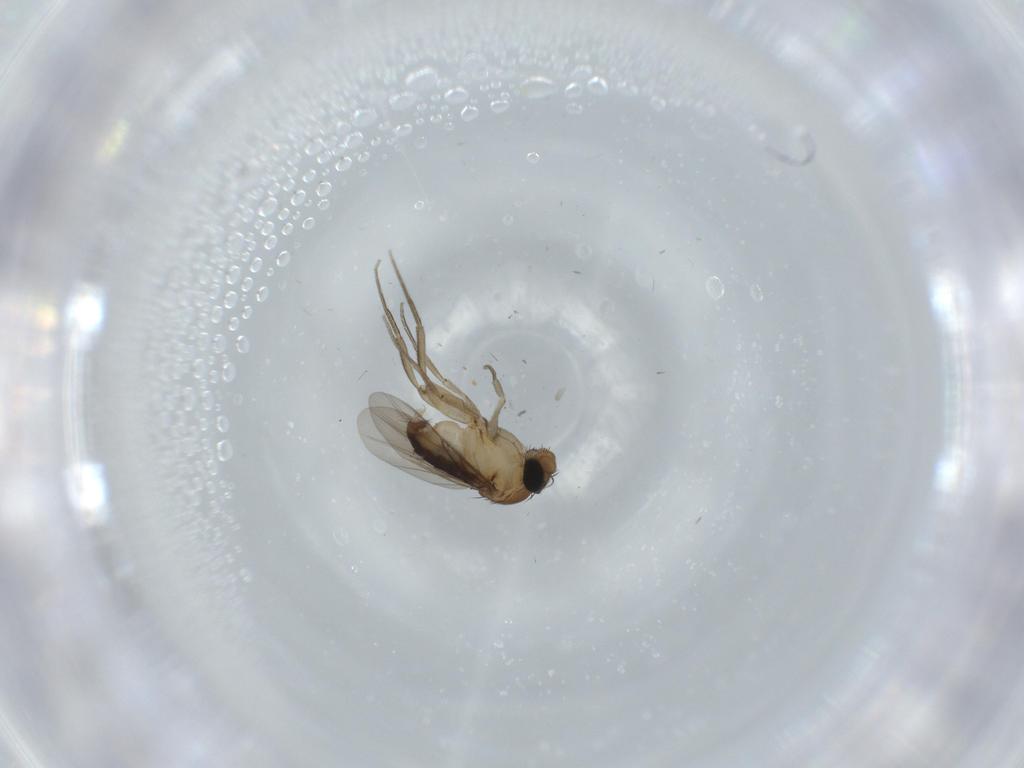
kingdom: Animalia
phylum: Arthropoda
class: Insecta
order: Diptera
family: Phoridae
